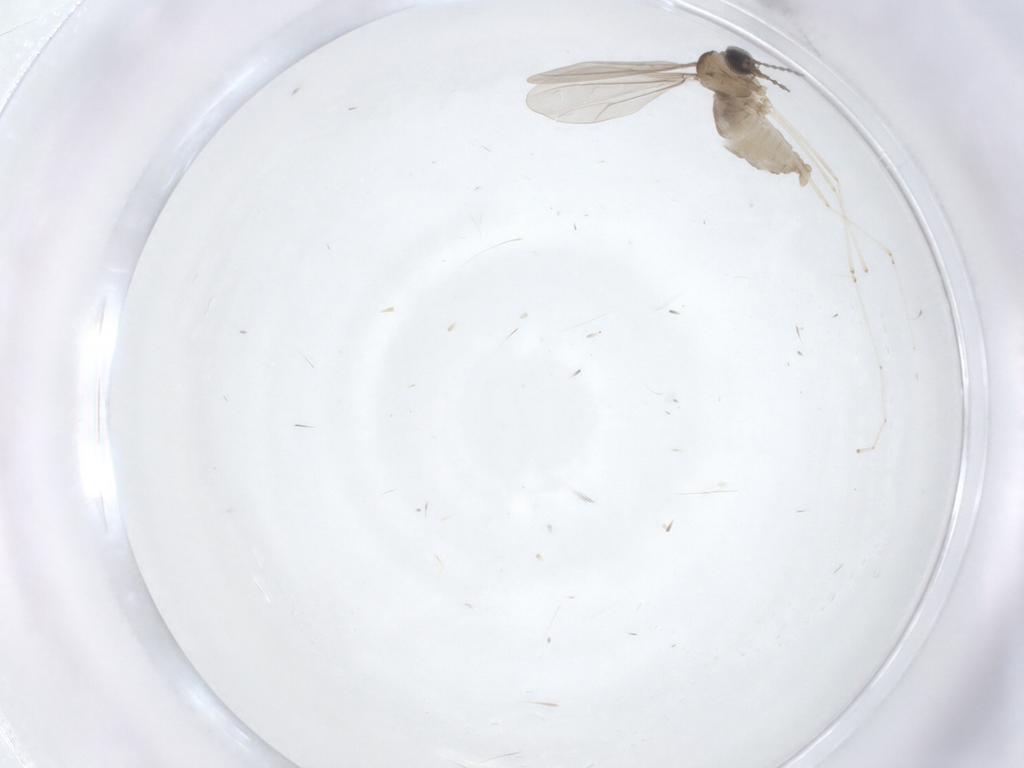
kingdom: Animalia
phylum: Arthropoda
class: Insecta
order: Diptera
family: Cecidomyiidae
